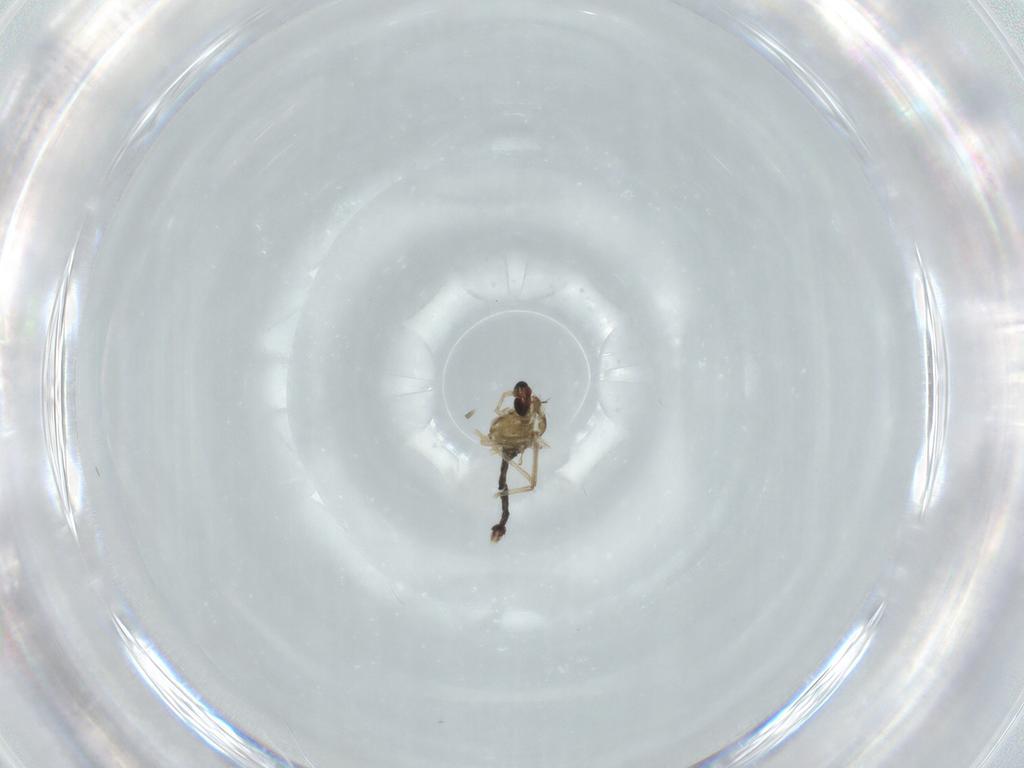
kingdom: Animalia
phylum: Arthropoda
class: Insecta
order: Diptera
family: Chironomidae
